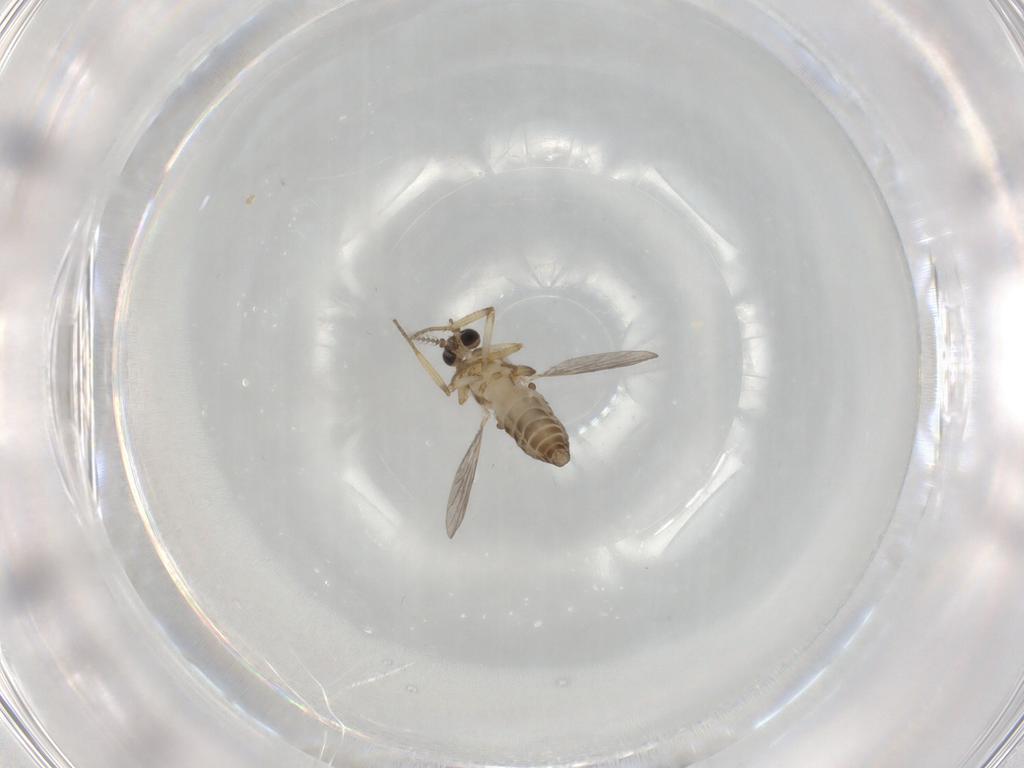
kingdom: Animalia
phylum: Arthropoda
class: Insecta
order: Diptera
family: Ceratopogonidae
